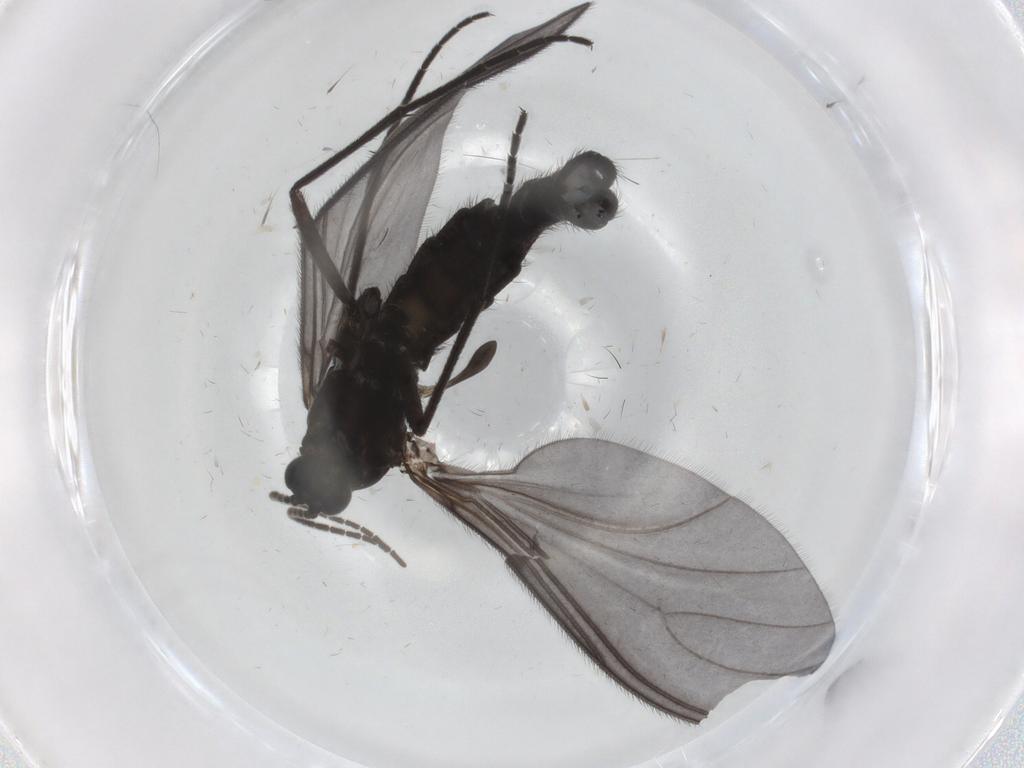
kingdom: Animalia
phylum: Arthropoda
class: Insecta
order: Diptera
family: Sciaridae
